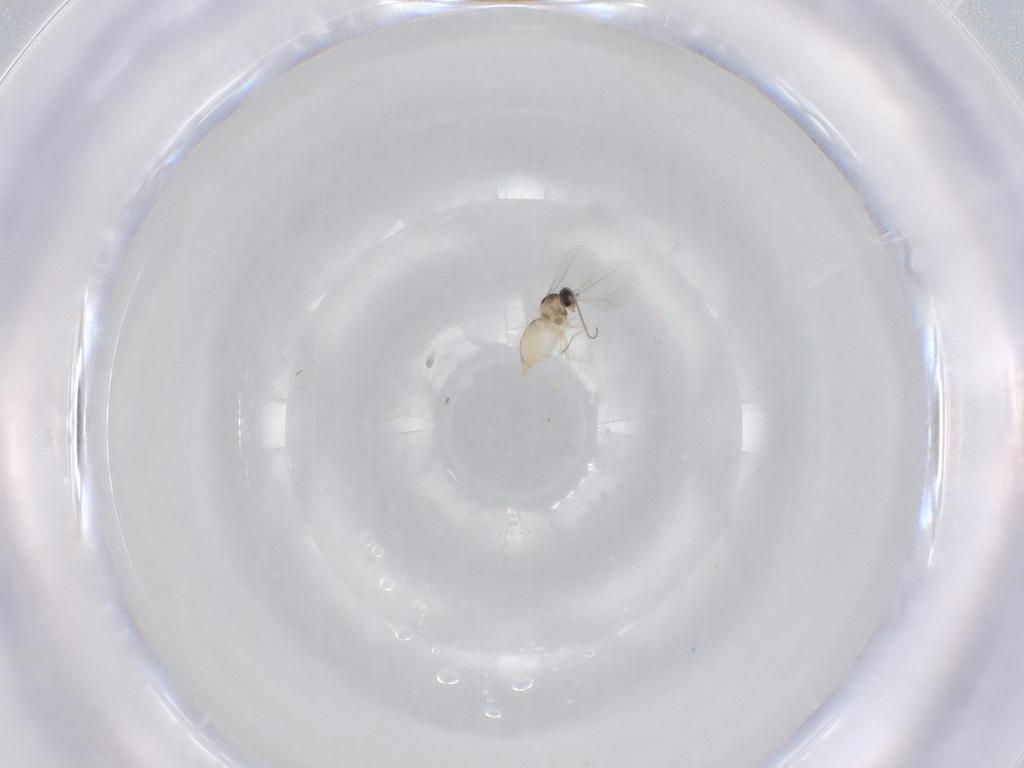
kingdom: Animalia
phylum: Arthropoda
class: Insecta
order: Diptera
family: Cecidomyiidae
